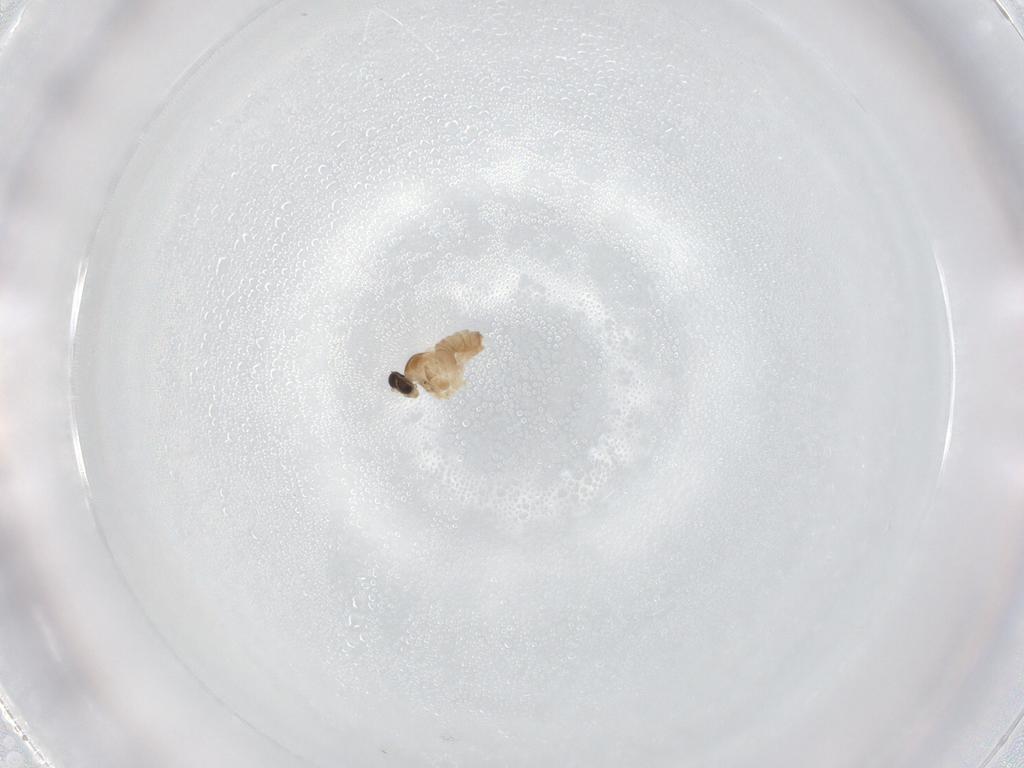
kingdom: Animalia
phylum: Arthropoda
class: Insecta
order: Diptera
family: Cecidomyiidae
